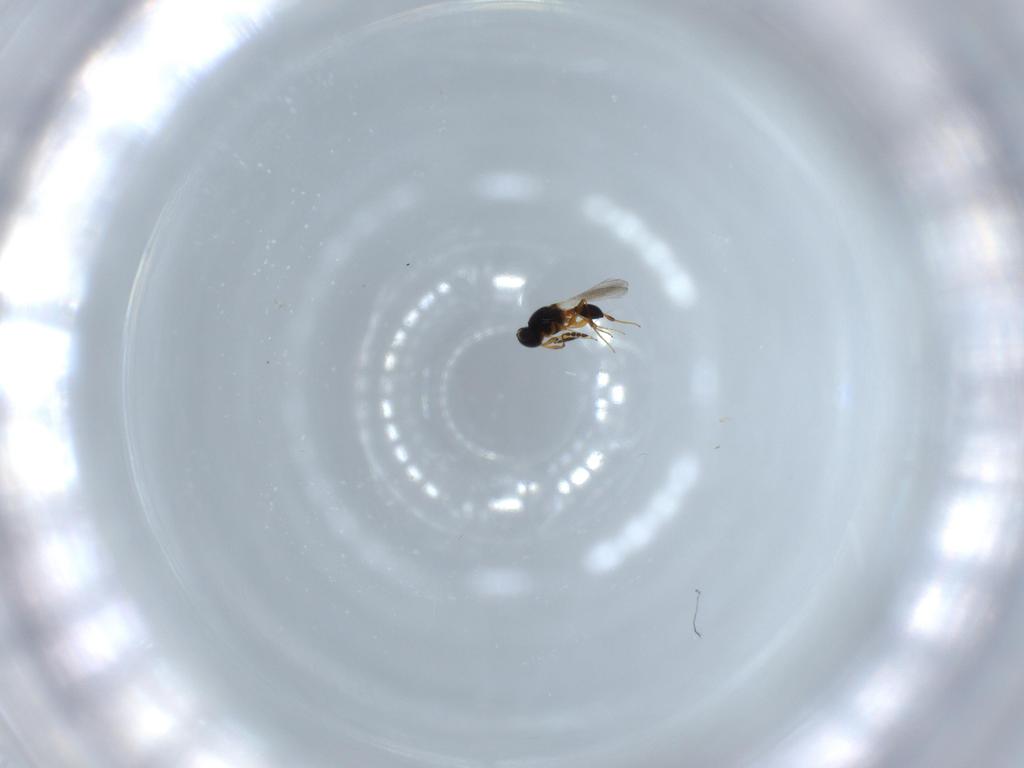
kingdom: Animalia
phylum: Arthropoda
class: Insecta
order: Hymenoptera
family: Platygastridae
